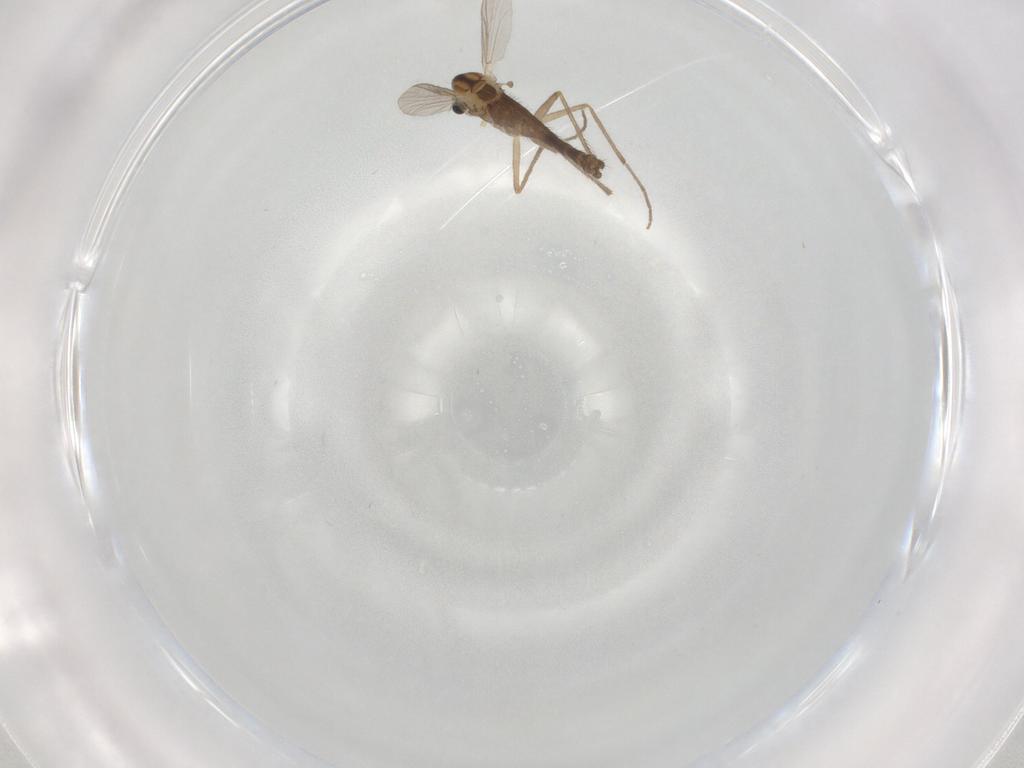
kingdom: Animalia
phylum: Arthropoda
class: Insecta
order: Diptera
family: Chironomidae
